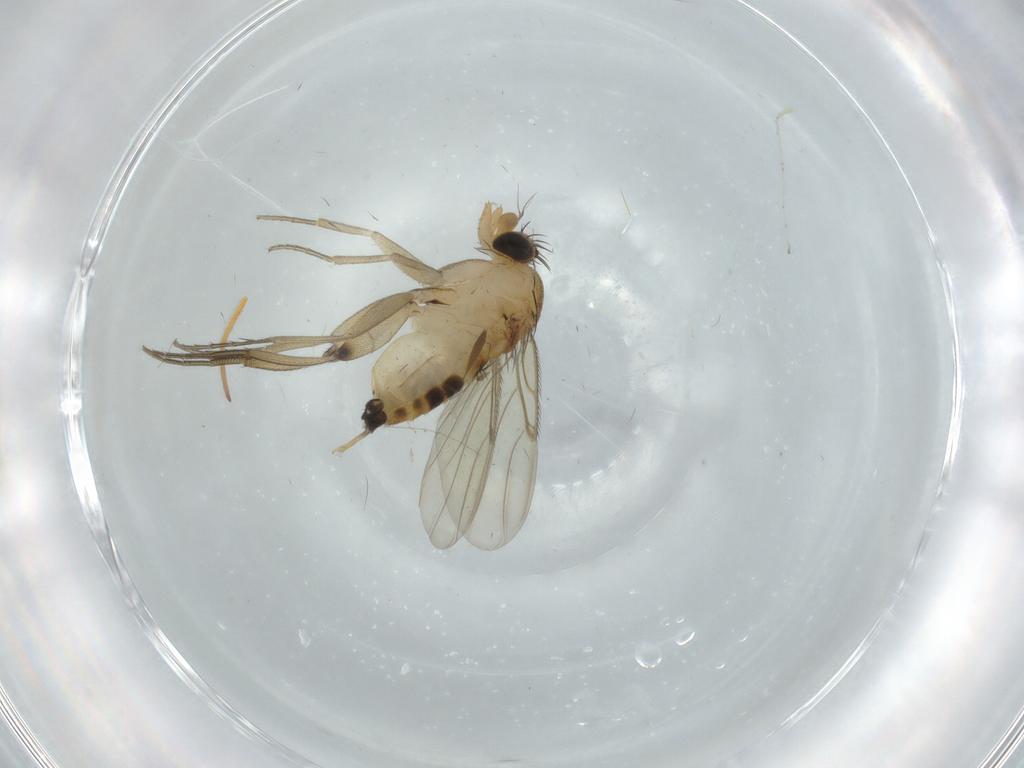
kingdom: Animalia
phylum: Arthropoda
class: Insecta
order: Diptera
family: Phoridae
